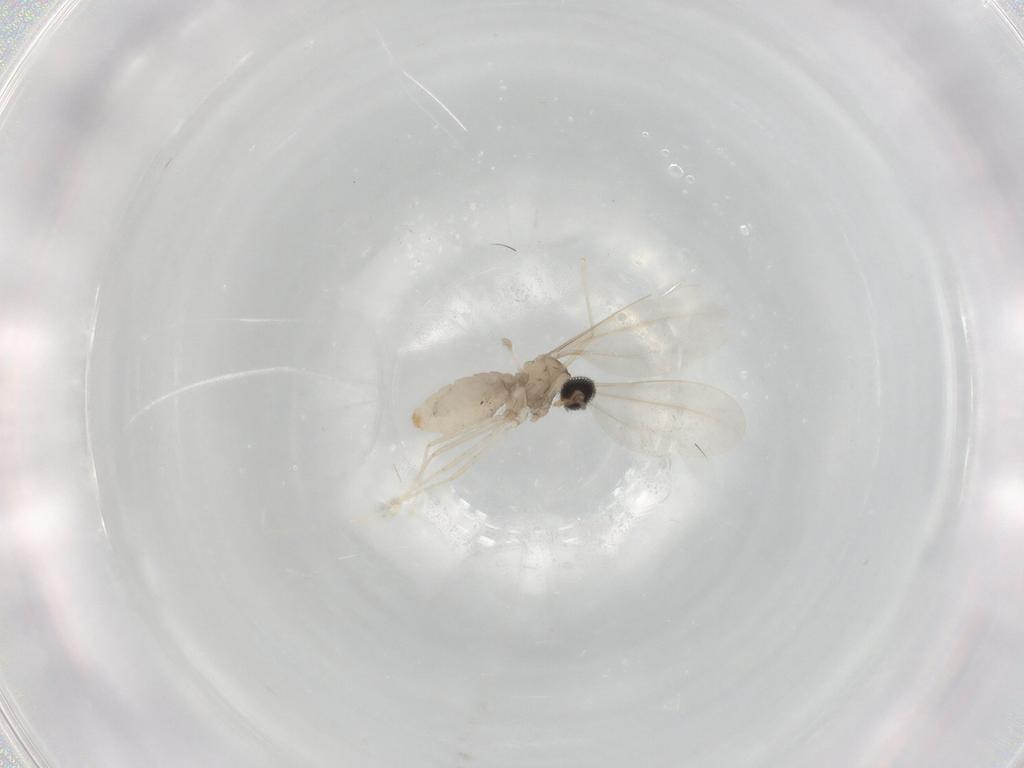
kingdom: Animalia
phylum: Arthropoda
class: Insecta
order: Diptera
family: Cecidomyiidae
